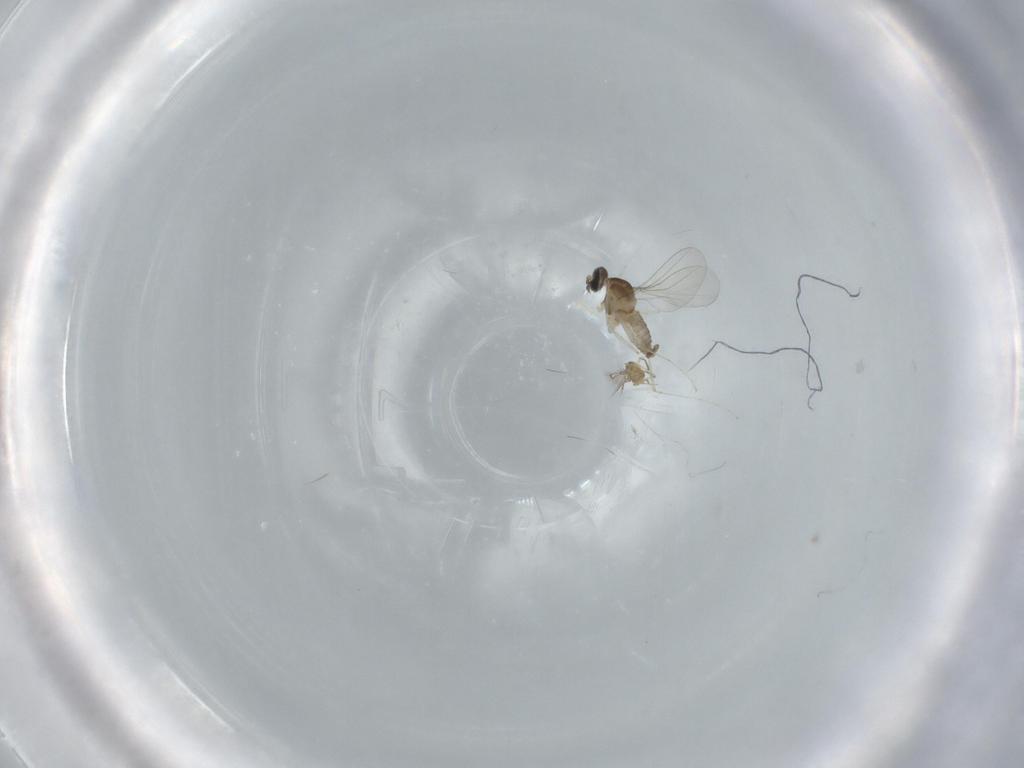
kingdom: Animalia
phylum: Arthropoda
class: Insecta
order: Diptera
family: Cecidomyiidae
